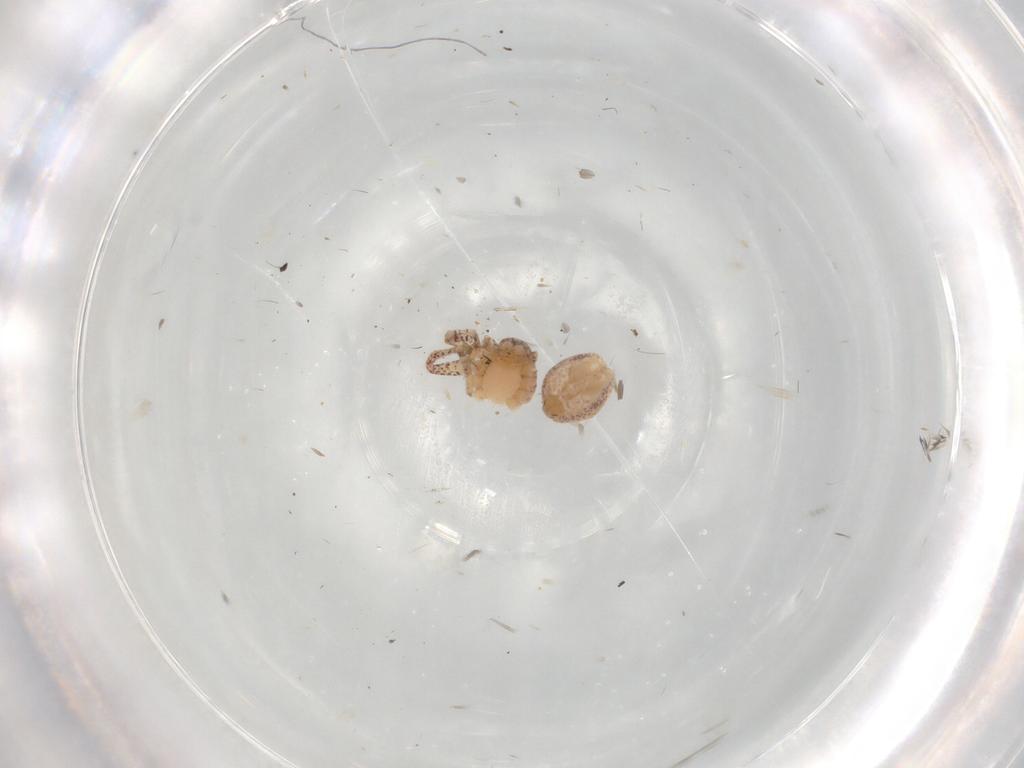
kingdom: Animalia
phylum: Arthropoda
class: Arachnida
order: Araneae
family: Philodromidae
